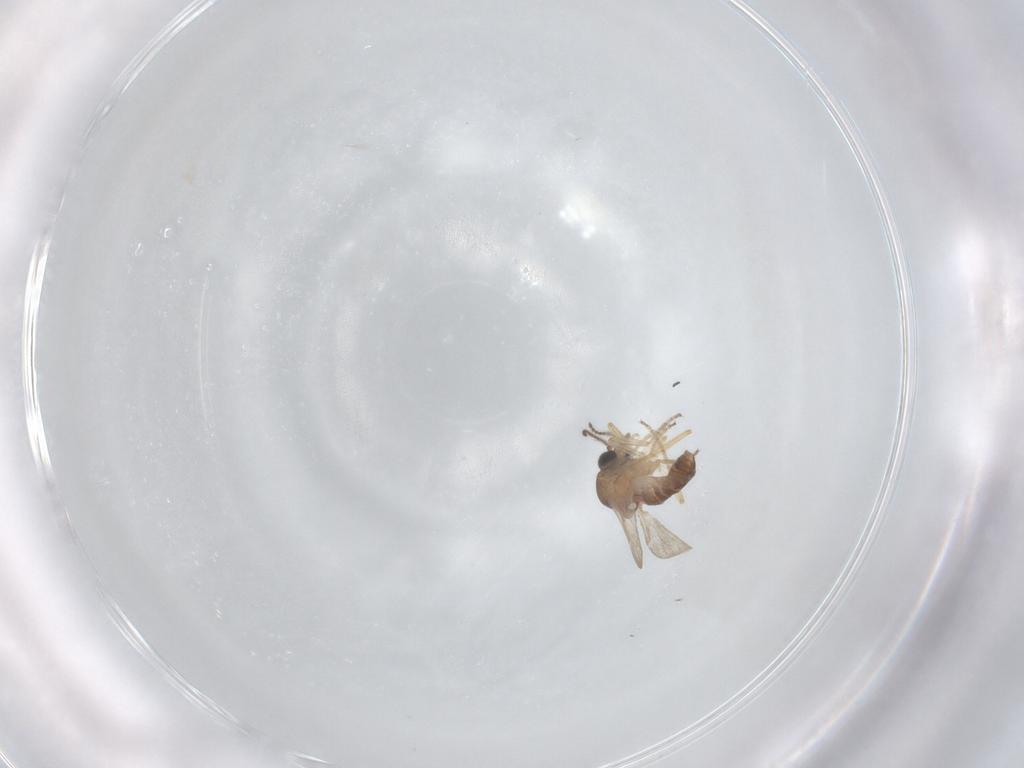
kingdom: Animalia
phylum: Arthropoda
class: Insecta
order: Diptera
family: Ceratopogonidae
